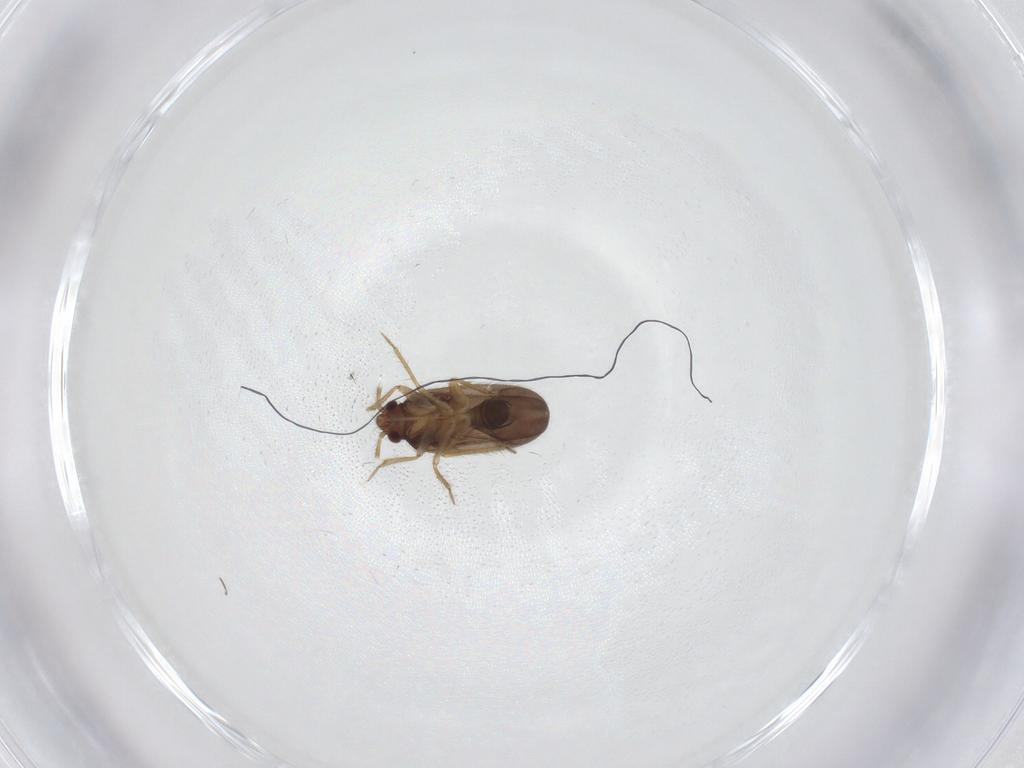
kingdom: Animalia
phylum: Arthropoda
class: Insecta
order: Hemiptera
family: Ceratocombidae
